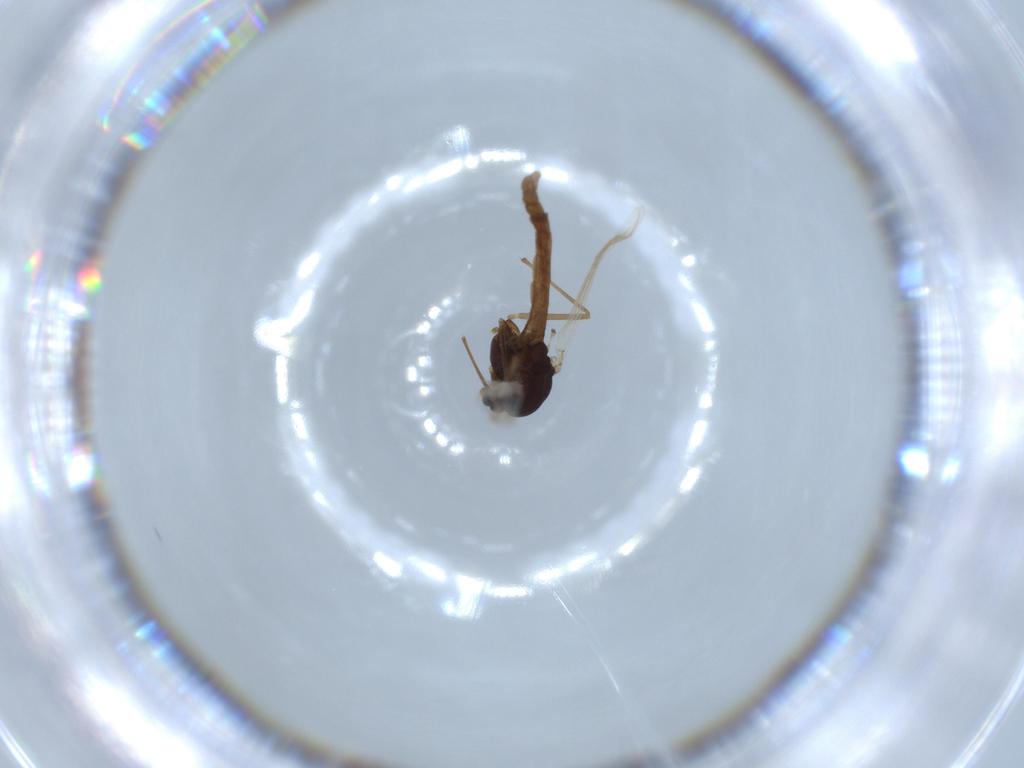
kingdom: Animalia
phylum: Arthropoda
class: Insecta
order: Diptera
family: Chironomidae
